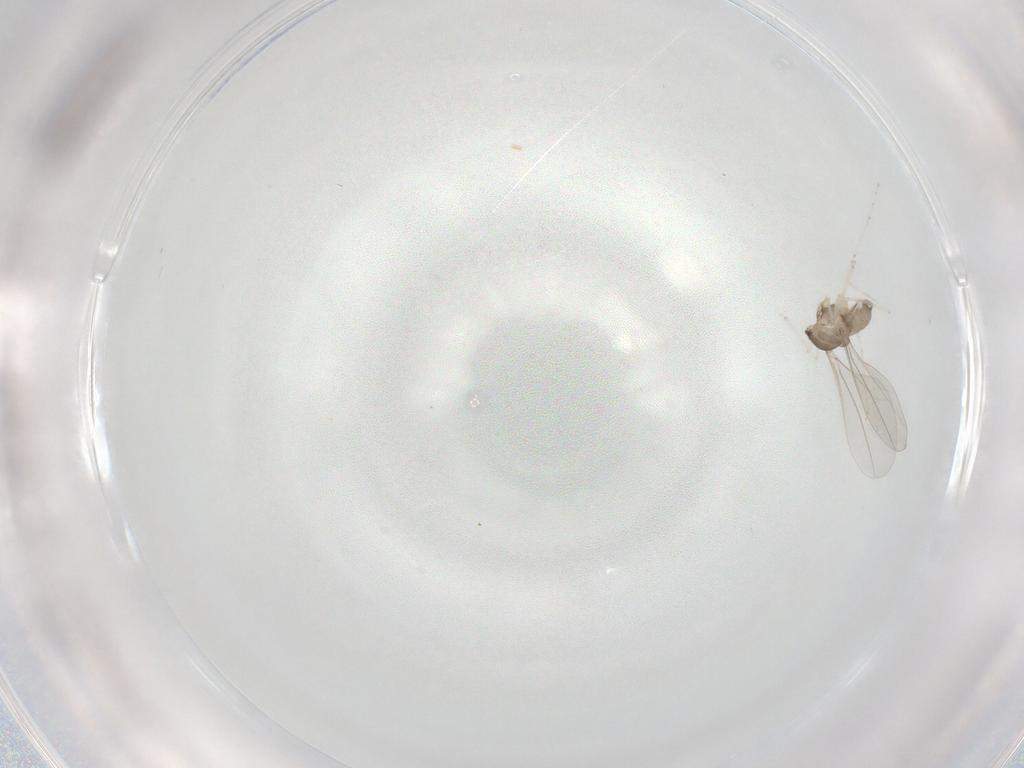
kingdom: Animalia
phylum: Arthropoda
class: Insecta
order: Diptera
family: Cecidomyiidae
